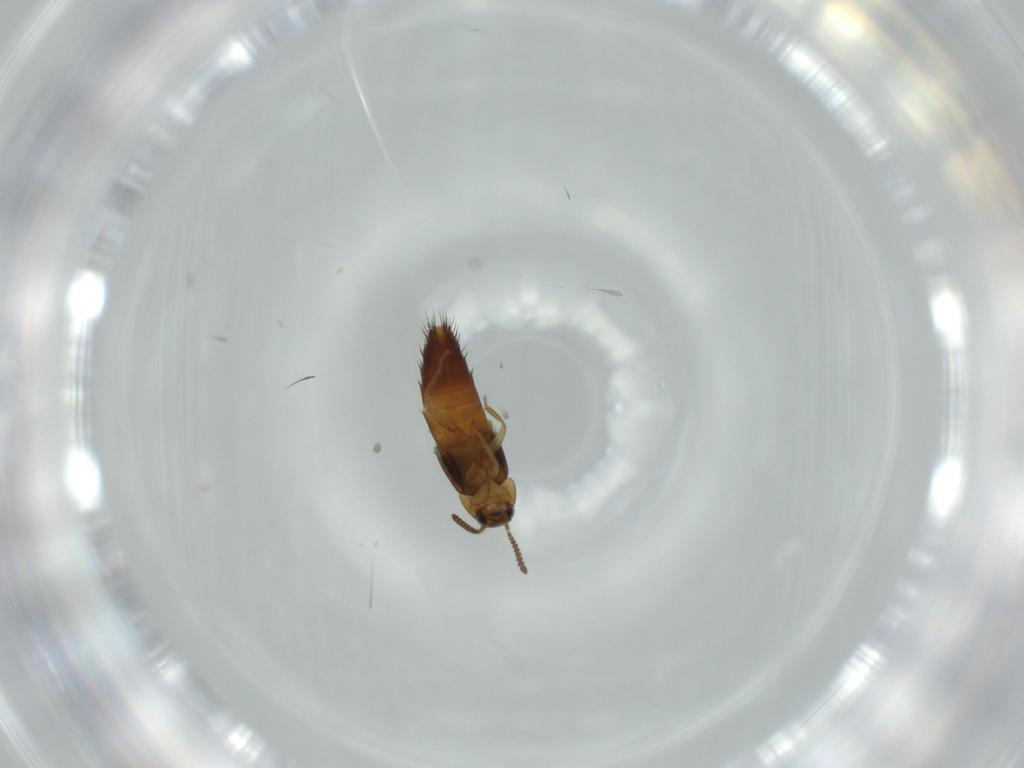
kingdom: Animalia
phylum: Arthropoda
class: Insecta
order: Coleoptera
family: Staphylinidae
